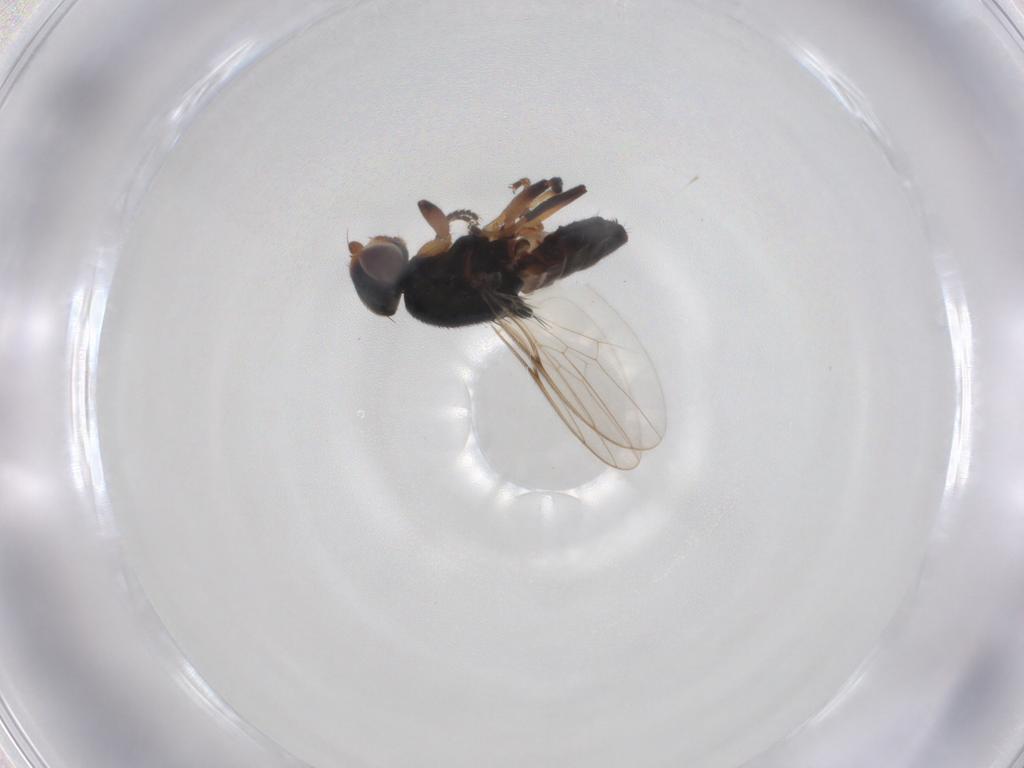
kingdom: Animalia
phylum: Arthropoda
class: Insecta
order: Diptera
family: Chloropidae
